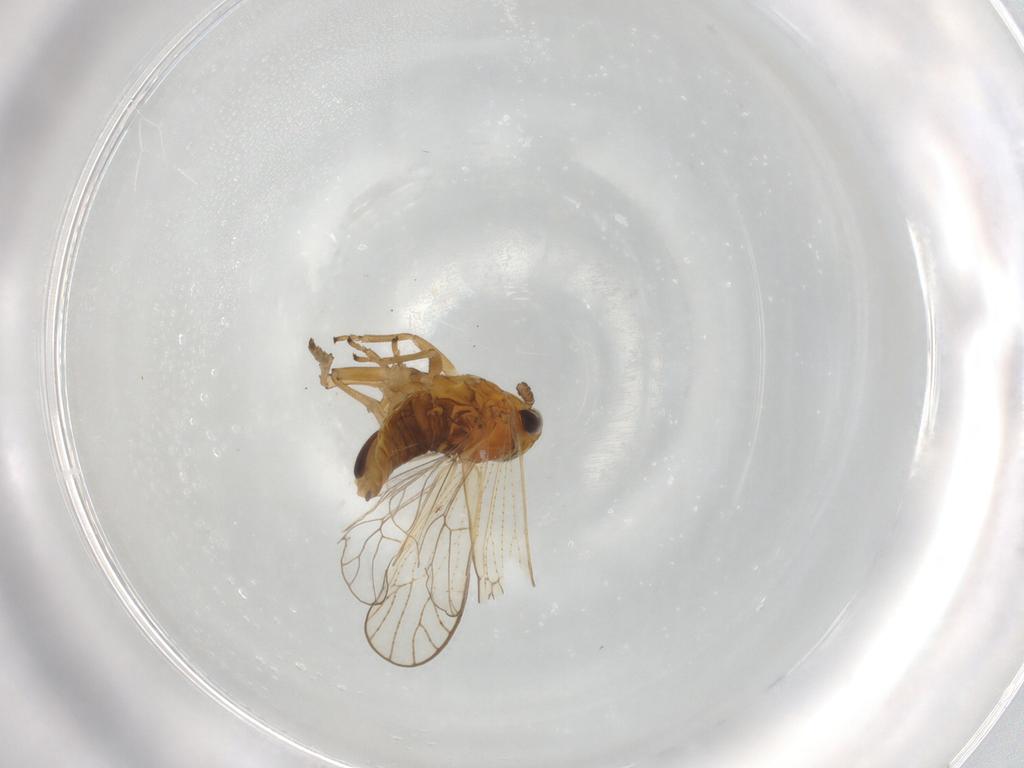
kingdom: Animalia
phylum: Arthropoda
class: Insecta
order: Hemiptera
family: Delphacidae
